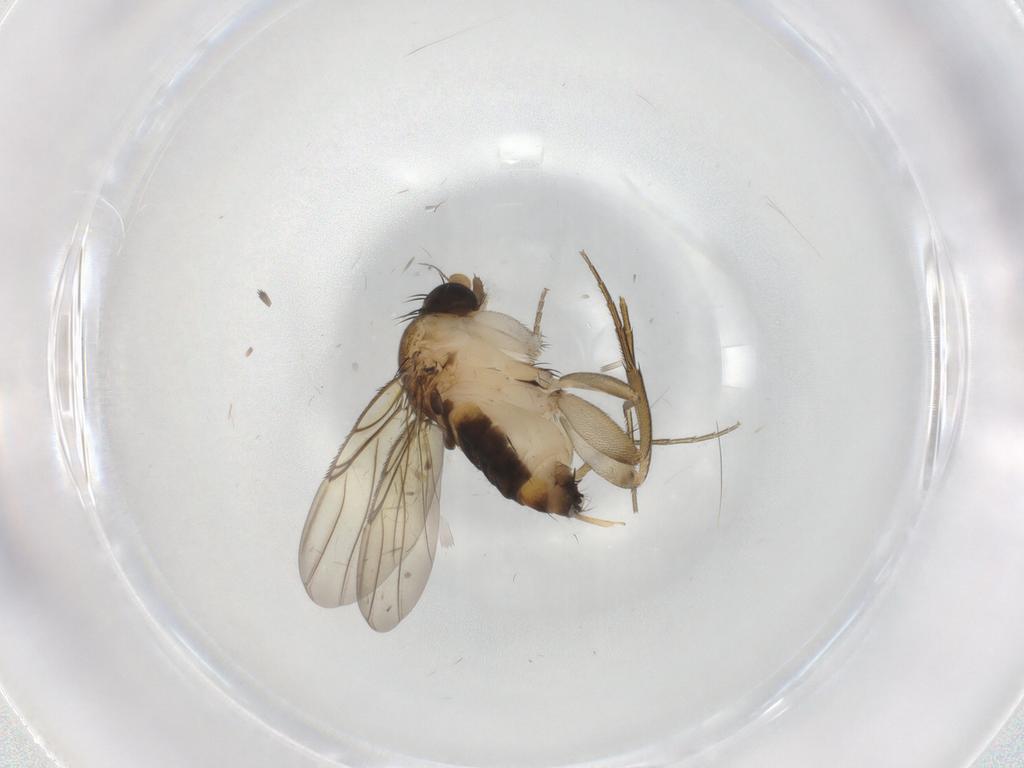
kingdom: Animalia
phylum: Arthropoda
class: Insecta
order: Diptera
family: Phoridae
